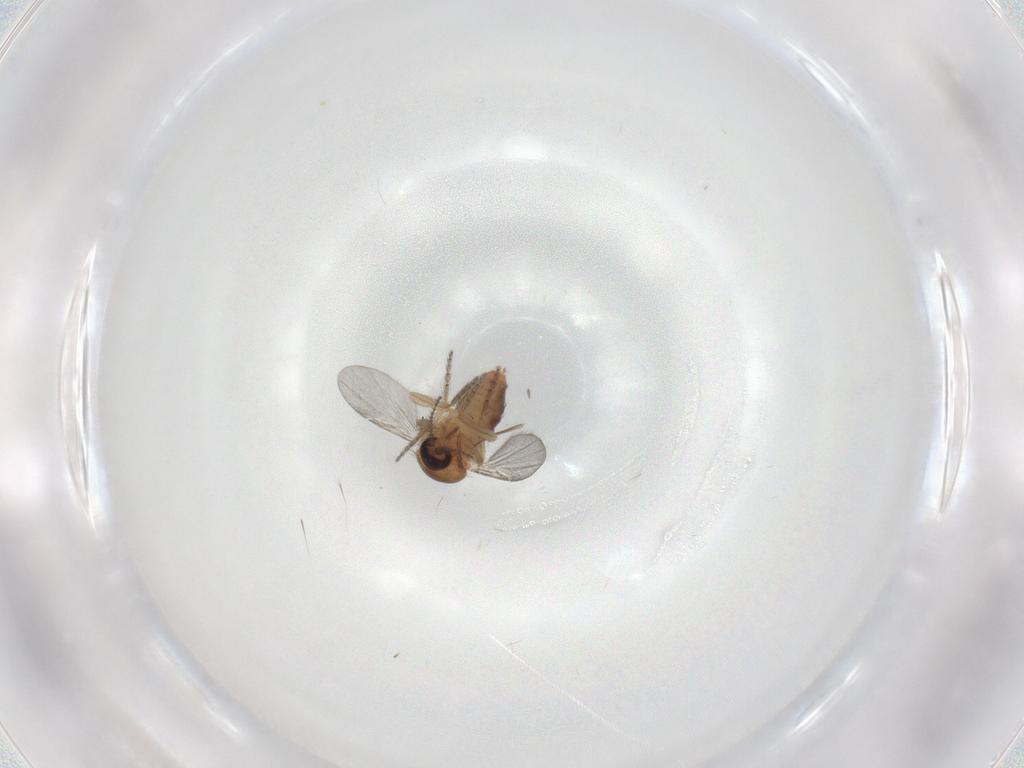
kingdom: Animalia
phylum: Arthropoda
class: Insecta
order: Diptera
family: Chironomidae
